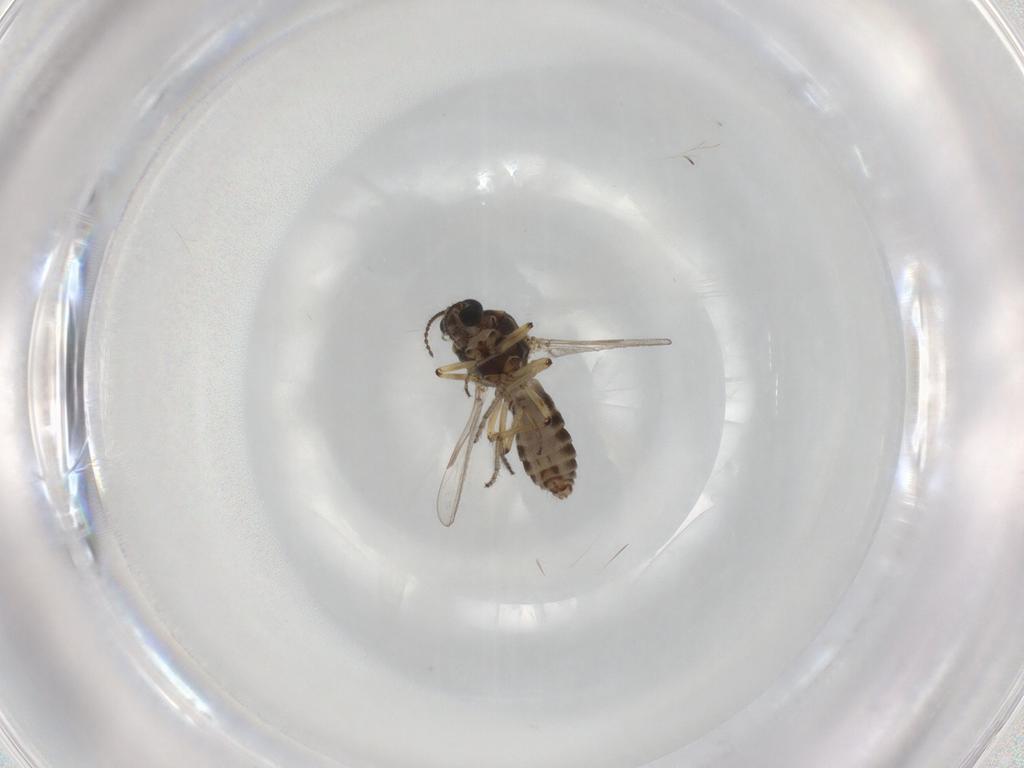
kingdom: Animalia
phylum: Arthropoda
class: Insecta
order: Diptera
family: Ceratopogonidae
